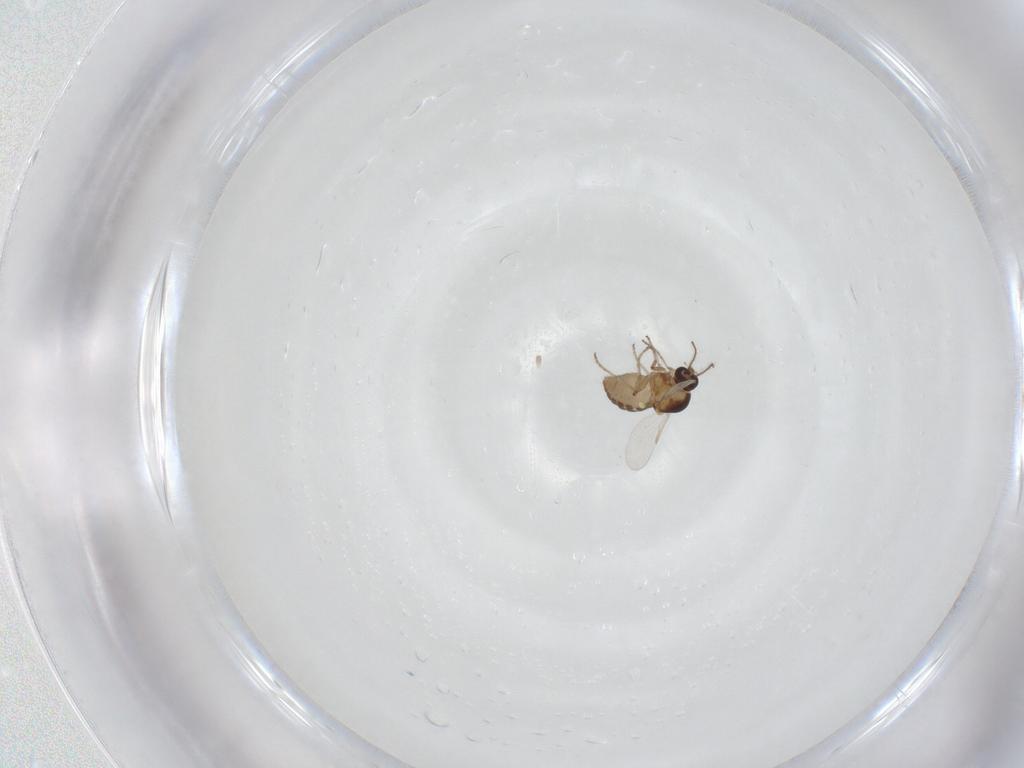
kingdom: Animalia
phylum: Arthropoda
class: Insecta
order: Diptera
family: Ceratopogonidae
